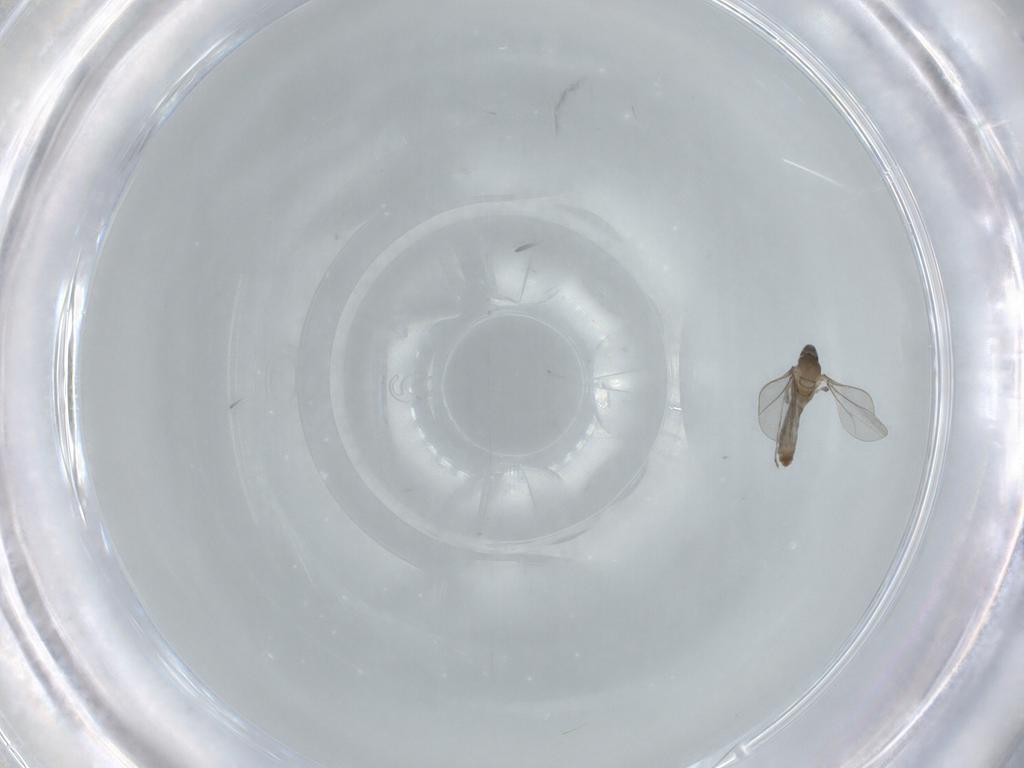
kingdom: Animalia
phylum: Arthropoda
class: Insecta
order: Diptera
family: Cecidomyiidae
